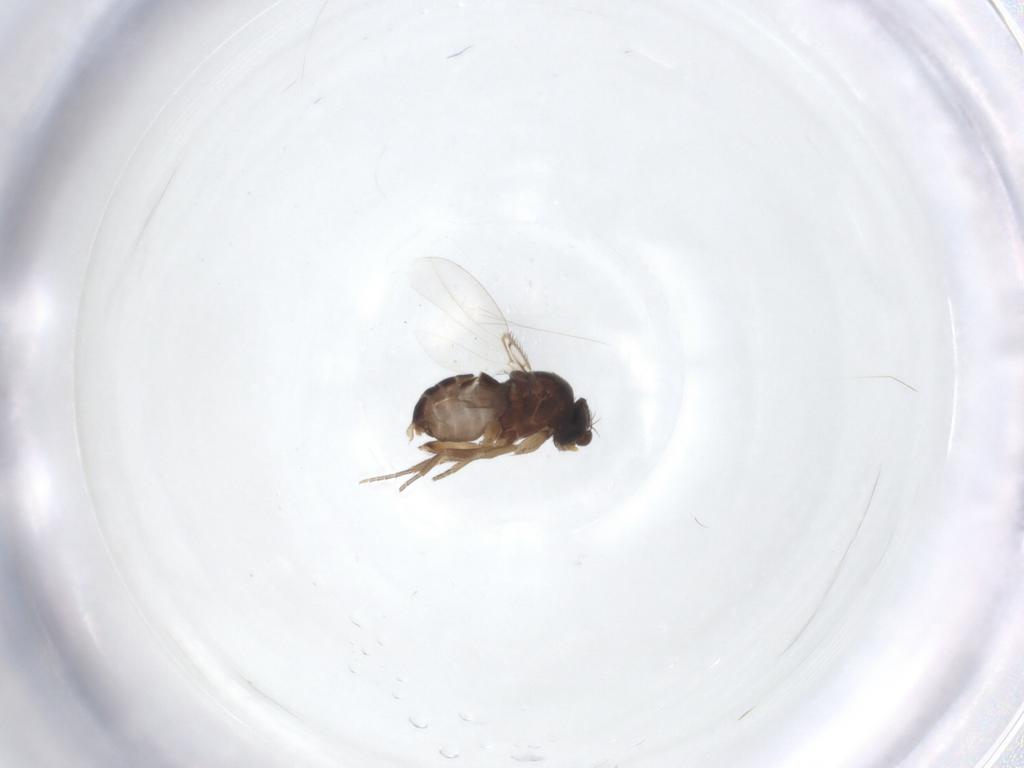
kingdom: Animalia
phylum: Arthropoda
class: Insecta
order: Diptera
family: Phoridae
